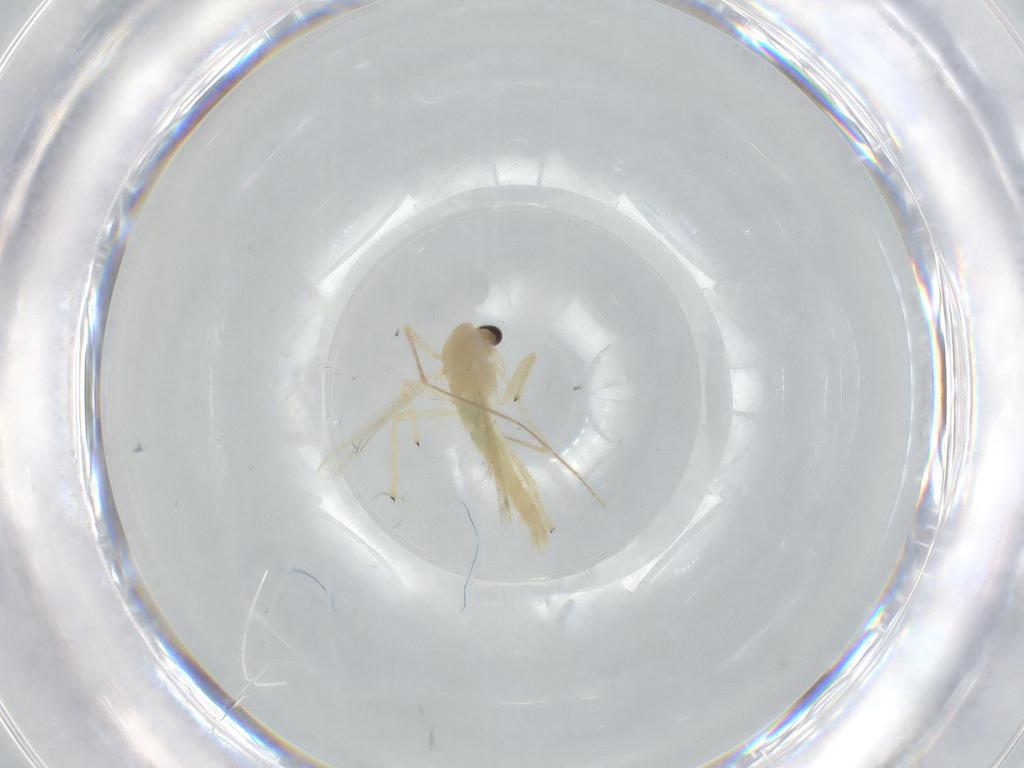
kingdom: Animalia
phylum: Arthropoda
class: Insecta
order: Diptera
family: Chironomidae
